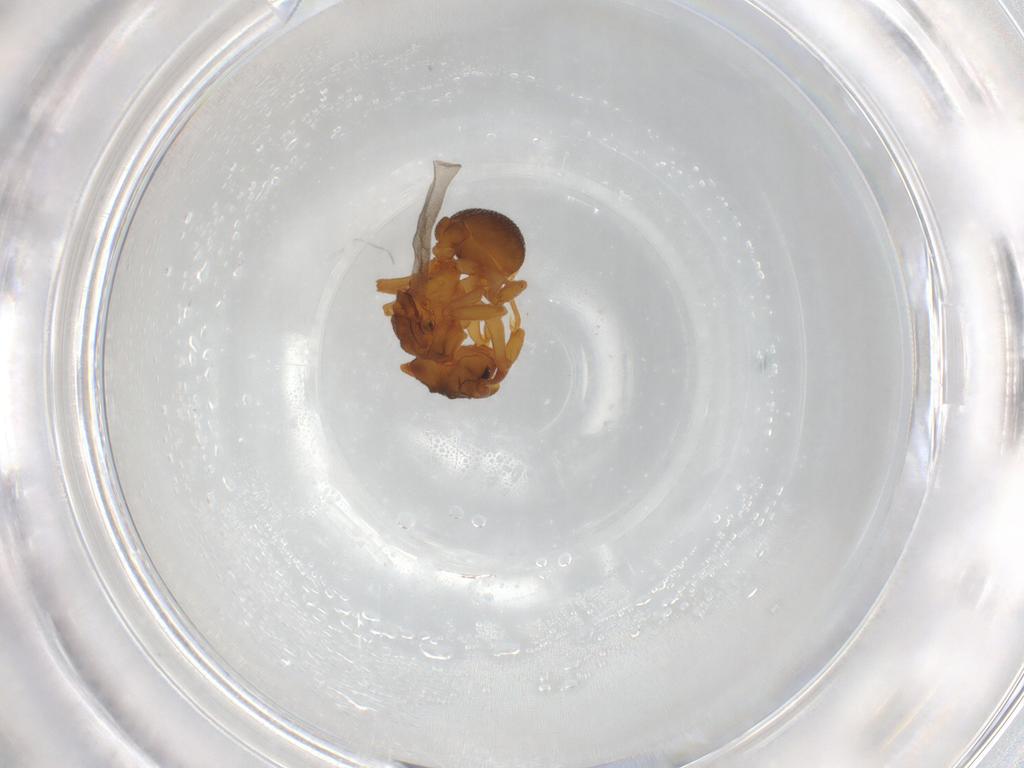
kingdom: Animalia
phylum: Arthropoda
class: Insecta
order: Hymenoptera
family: Formicidae
